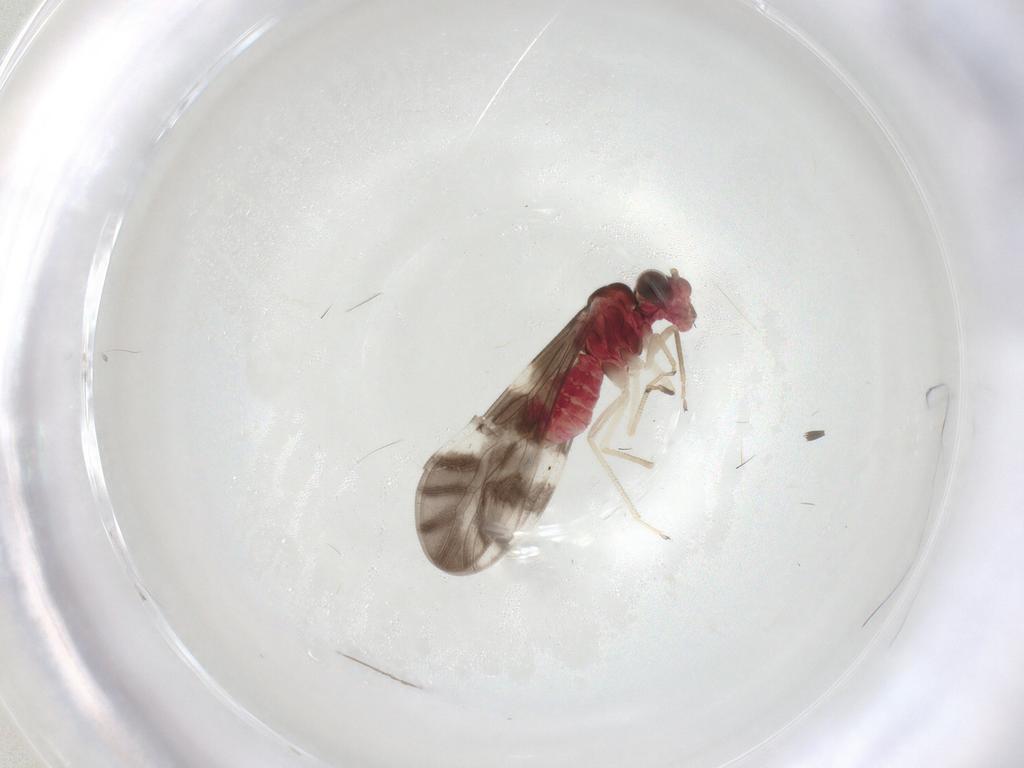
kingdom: Animalia
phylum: Arthropoda
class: Insecta
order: Psocodea
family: Caeciliusidae
